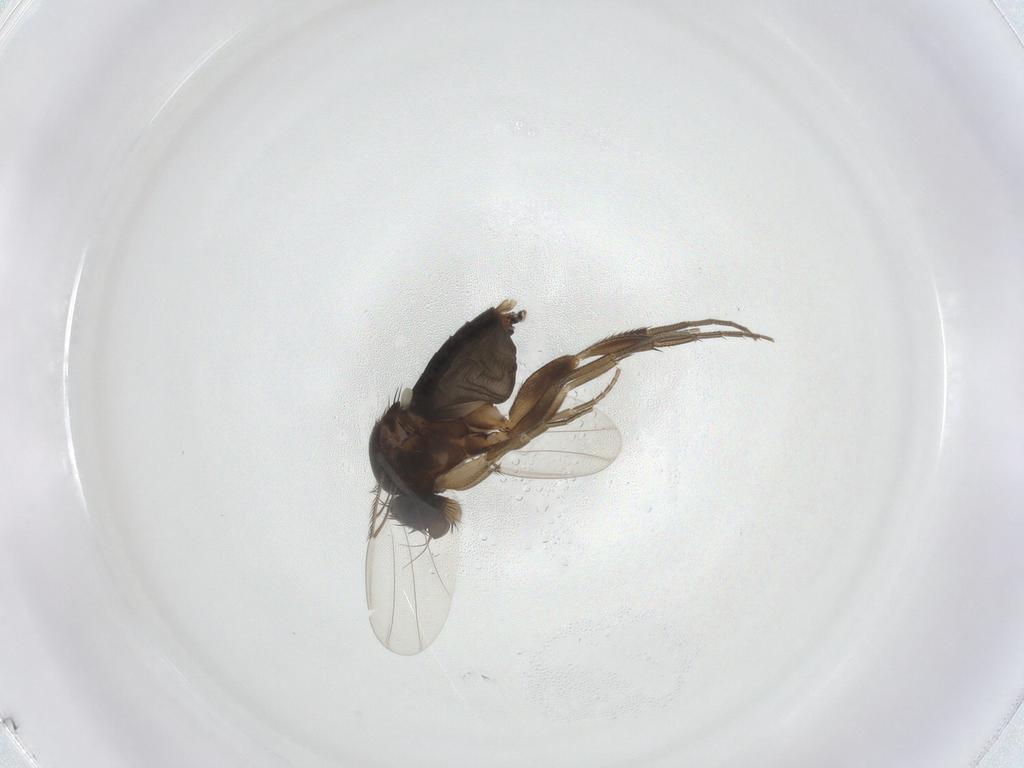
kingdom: Animalia
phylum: Arthropoda
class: Insecta
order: Diptera
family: Phoridae
